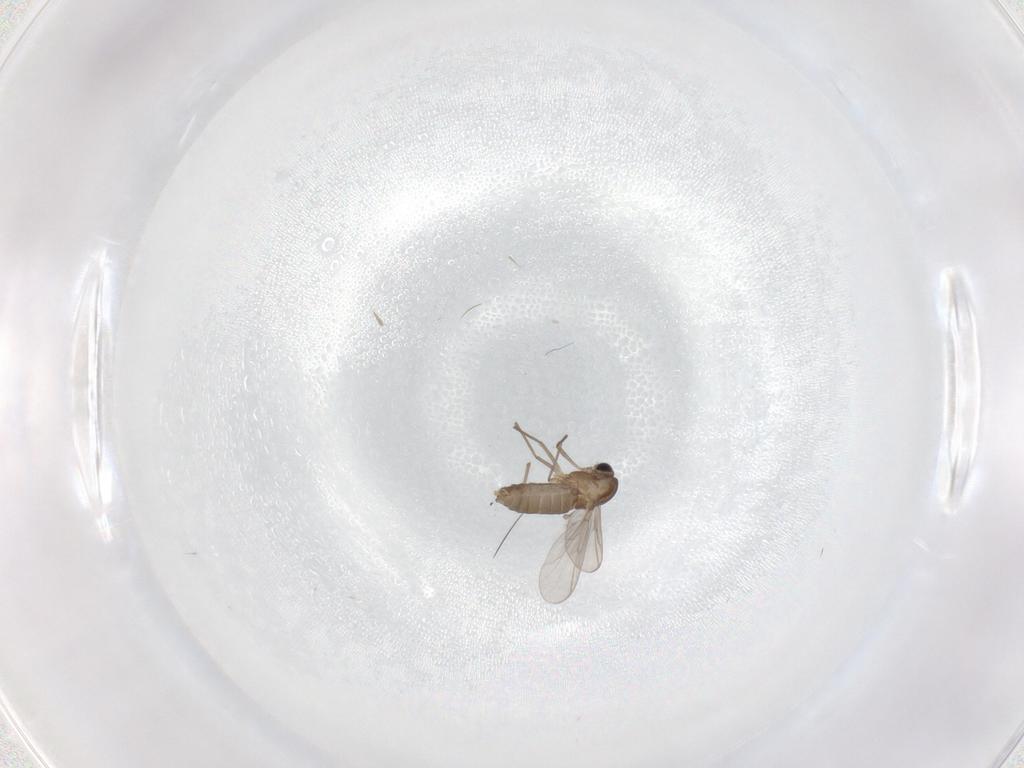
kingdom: Animalia
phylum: Arthropoda
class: Insecta
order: Diptera
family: Chironomidae
